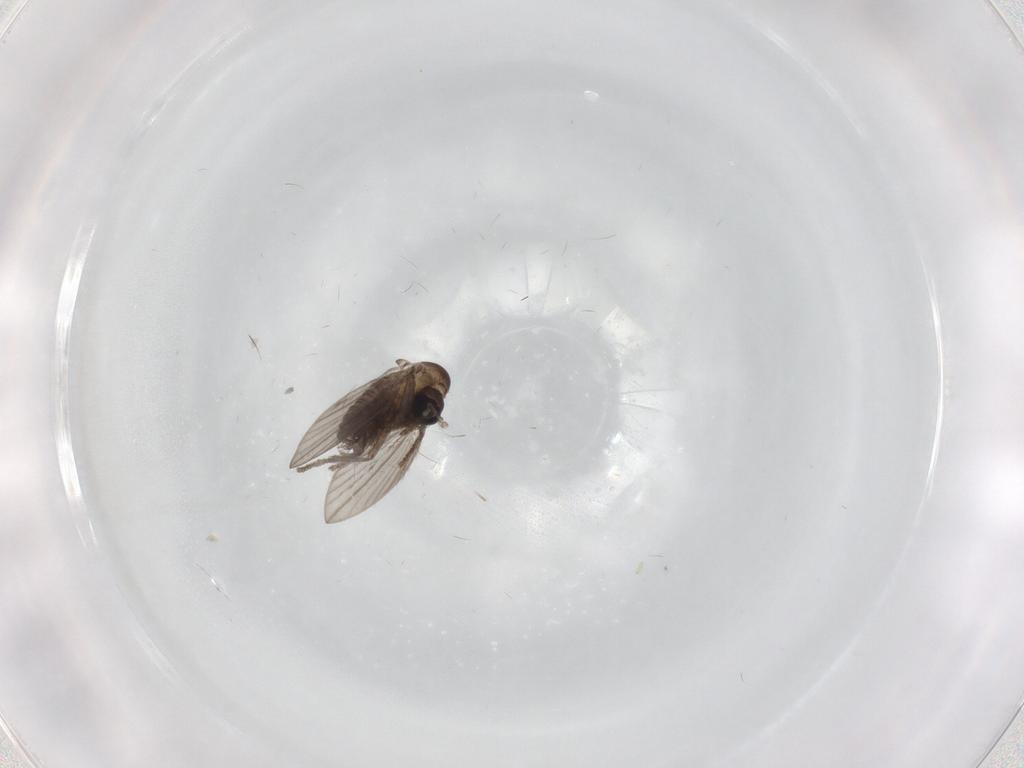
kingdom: Animalia
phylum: Arthropoda
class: Insecta
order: Diptera
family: Psychodidae
